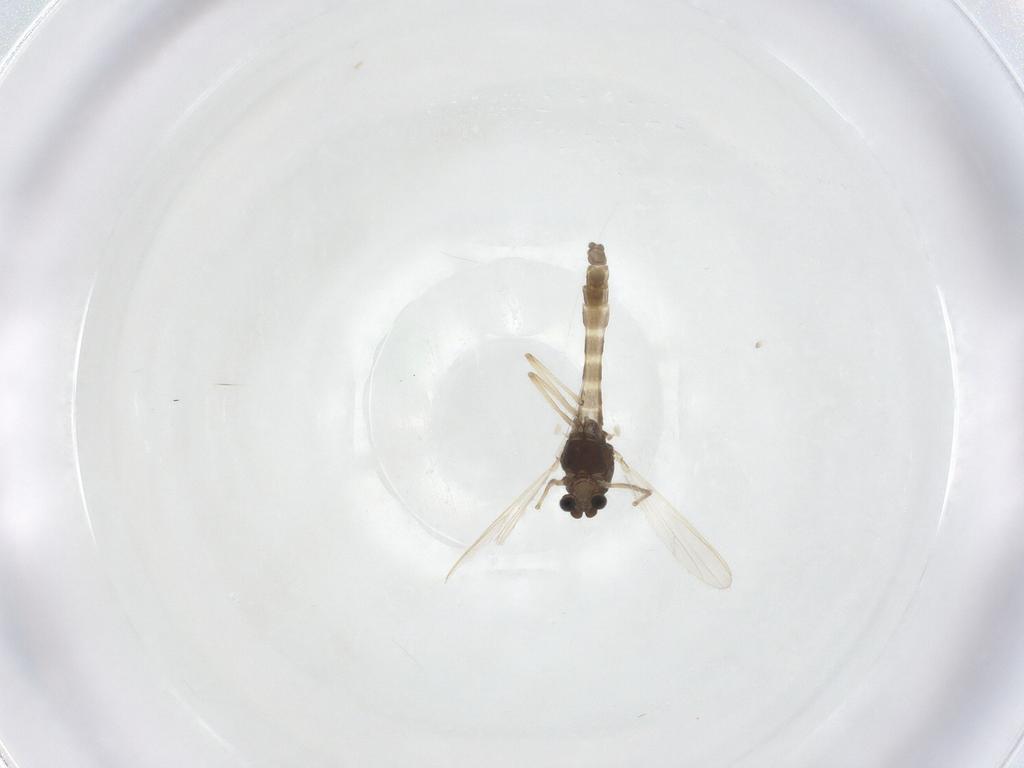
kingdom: Animalia
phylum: Arthropoda
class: Insecta
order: Diptera
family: Chironomidae
